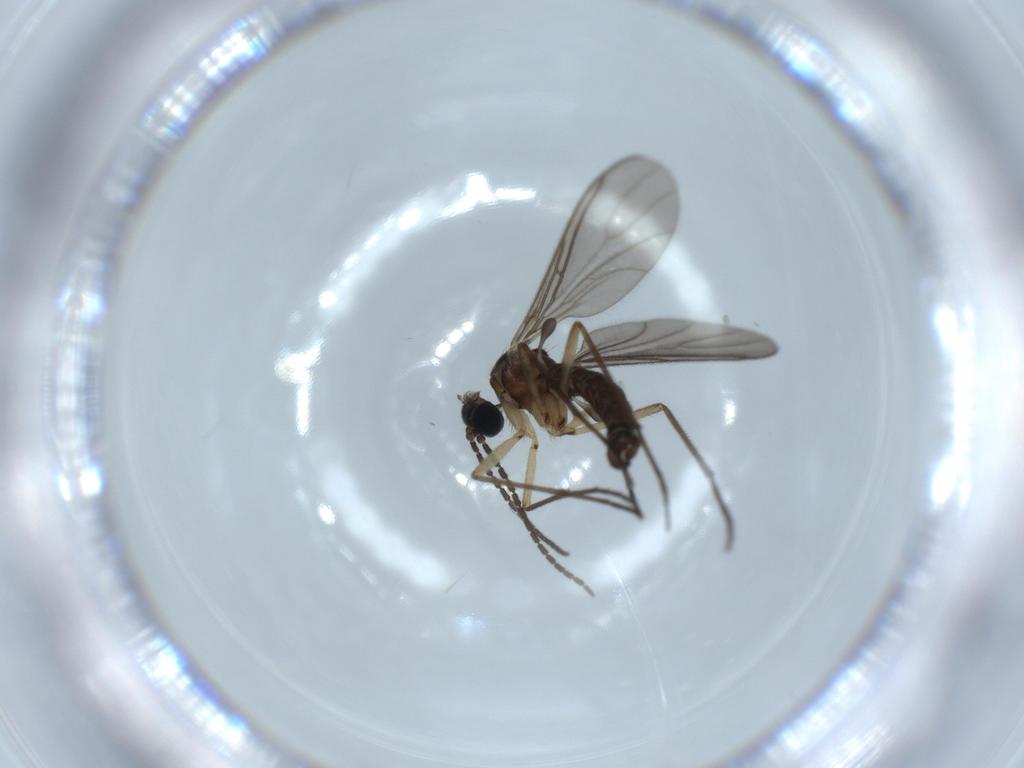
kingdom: Animalia
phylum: Arthropoda
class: Insecta
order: Diptera
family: Sciaridae
